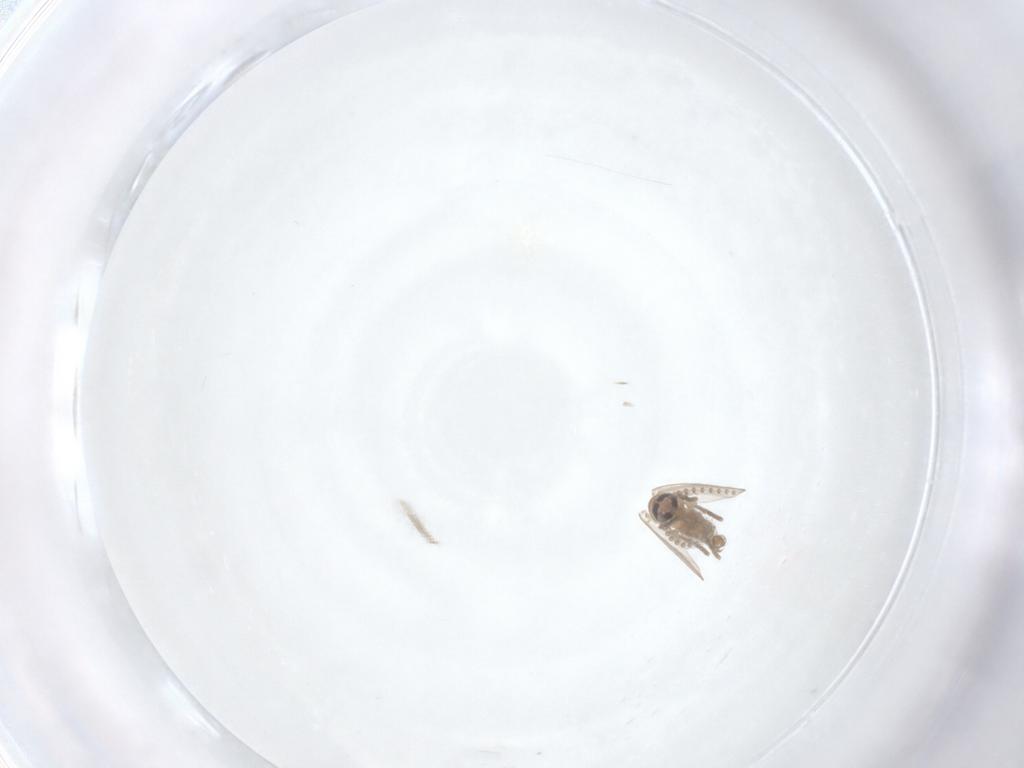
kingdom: Animalia
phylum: Arthropoda
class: Insecta
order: Diptera
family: Psychodidae
